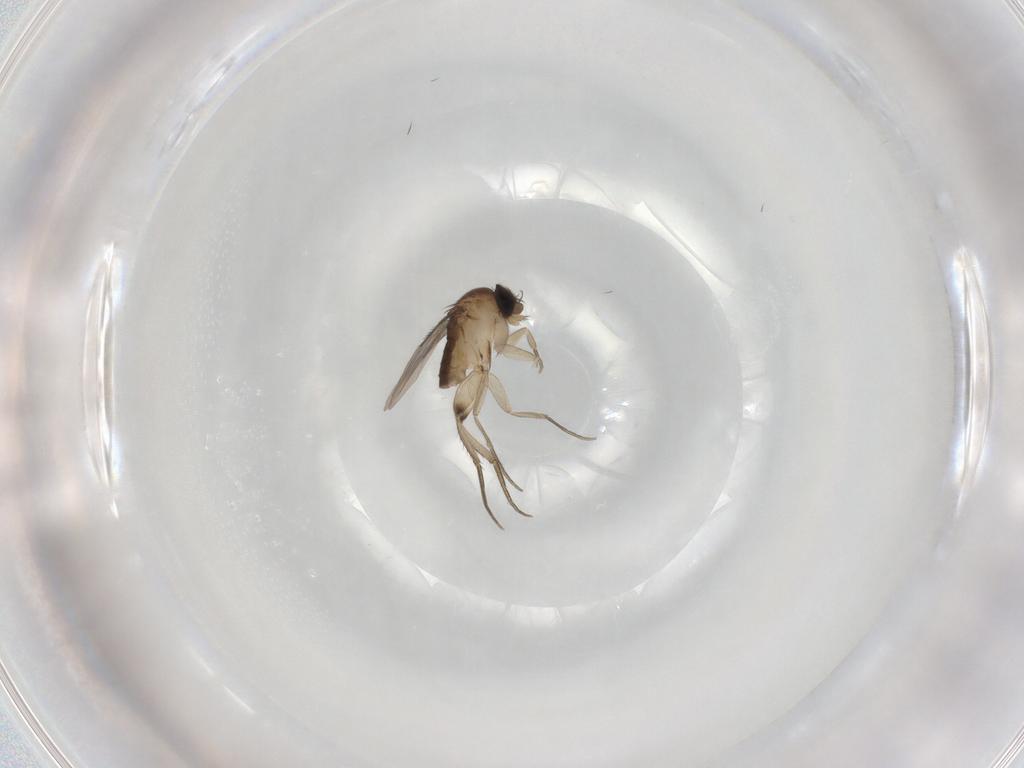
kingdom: Animalia
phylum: Arthropoda
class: Insecta
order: Diptera
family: Phoridae
